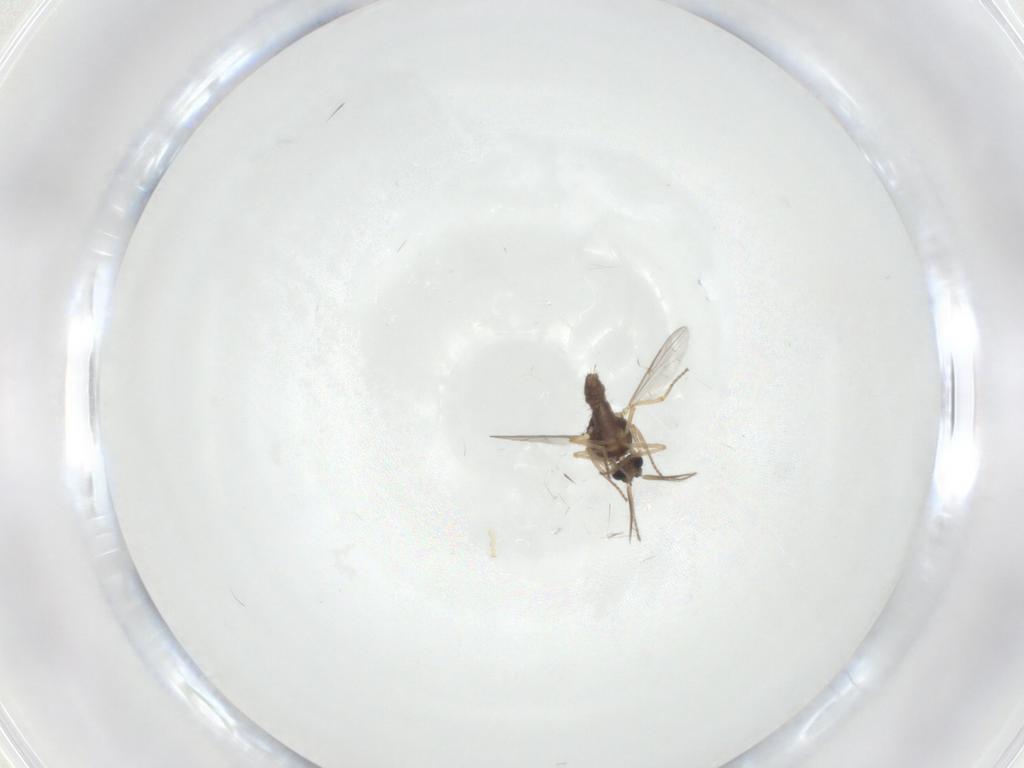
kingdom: Animalia
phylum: Arthropoda
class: Insecta
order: Diptera
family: Ceratopogonidae
